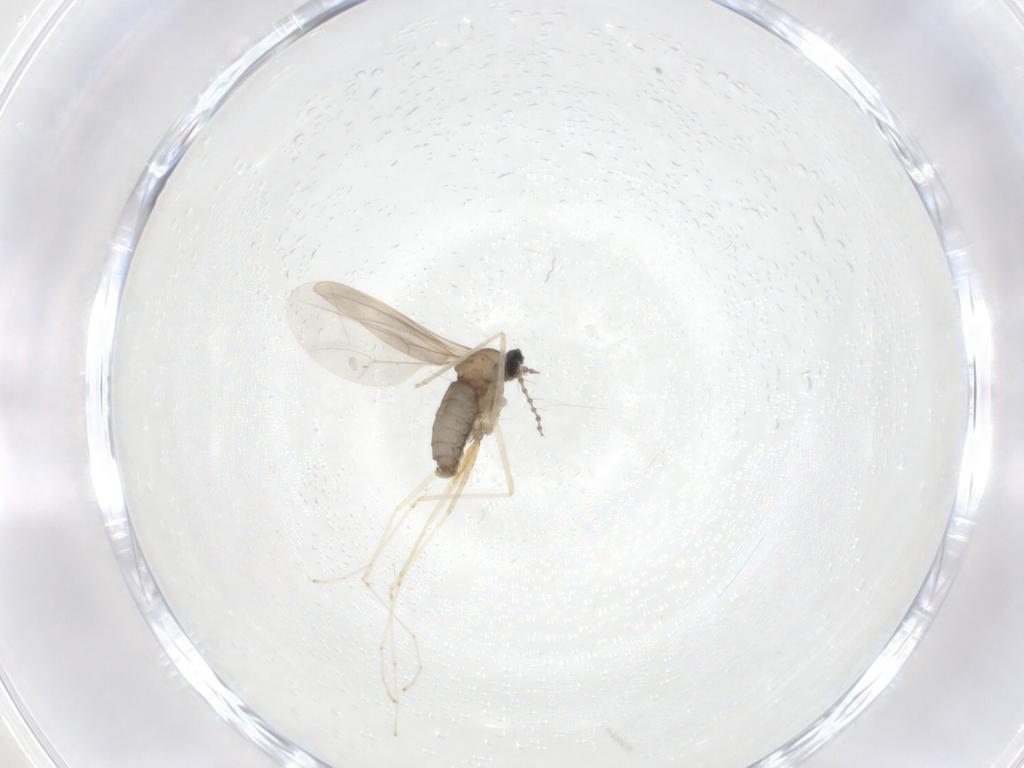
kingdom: Animalia
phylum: Arthropoda
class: Insecta
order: Diptera
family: Cecidomyiidae
